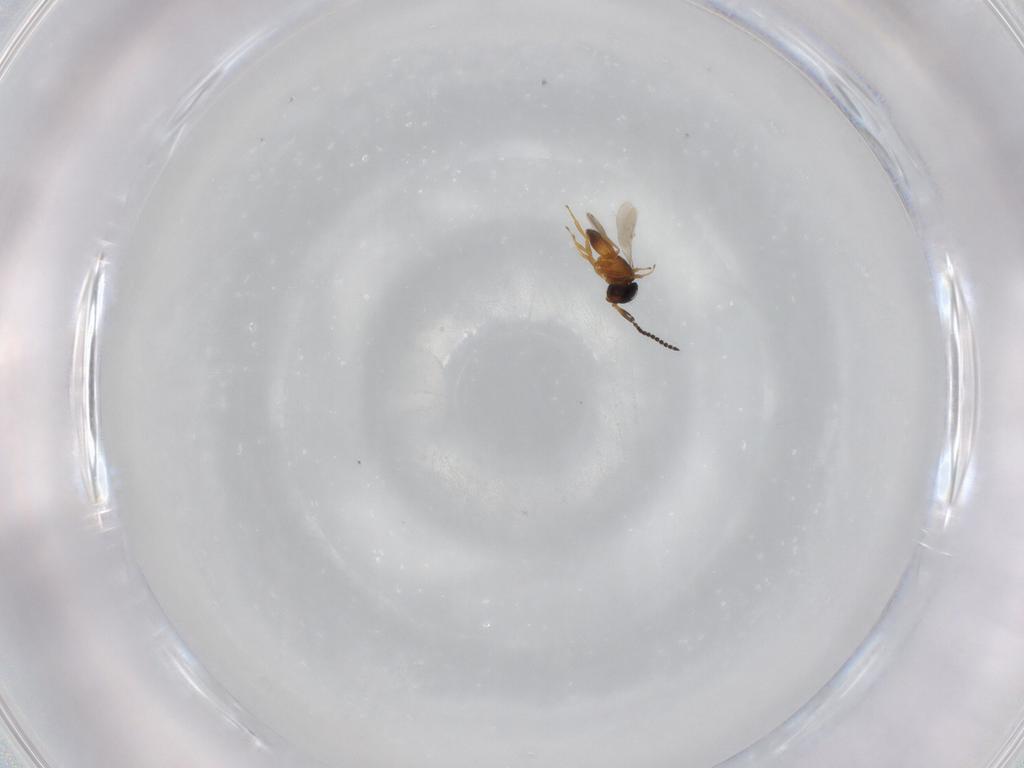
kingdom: Animalia
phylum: Arthropoda
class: Insecta
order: Hymenoptera
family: Scelionidae
